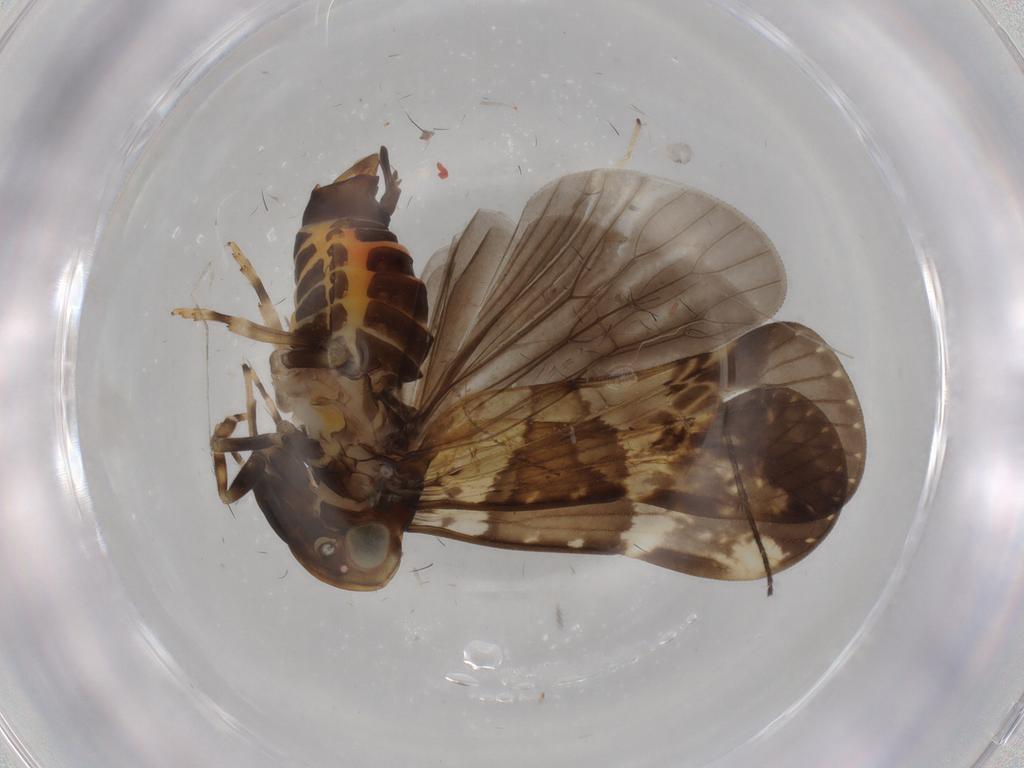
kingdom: Animalia
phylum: Arthropoda
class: Insecta
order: Hemiptera
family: Cixiidae
